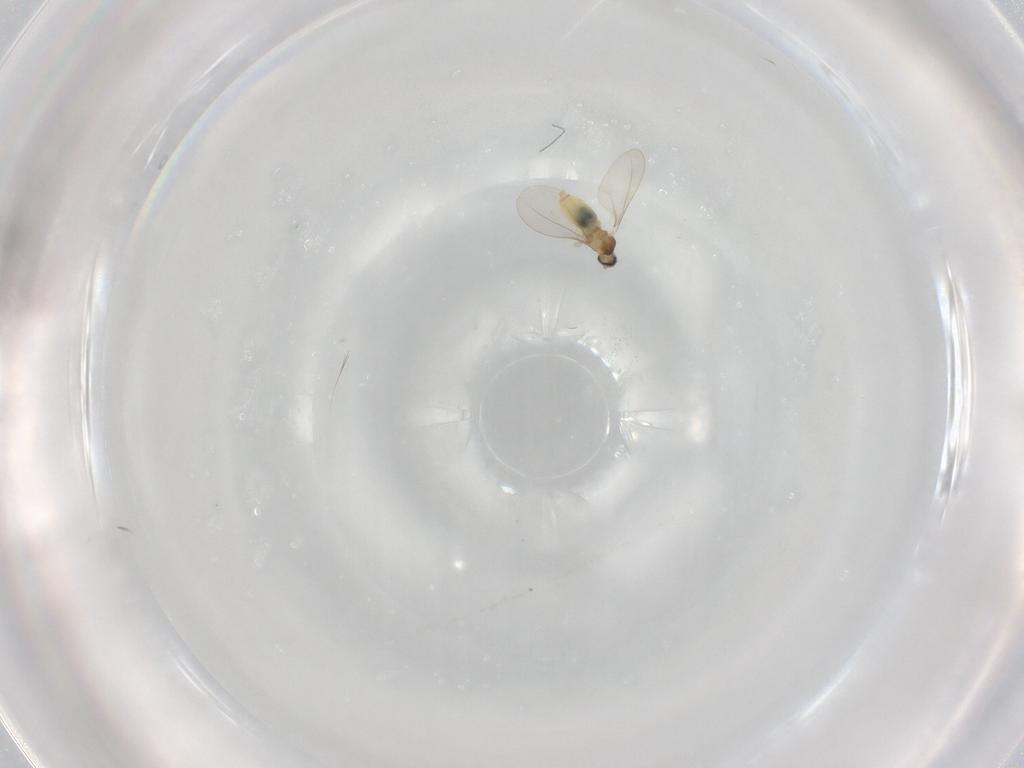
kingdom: Animalia
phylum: Arthropoda
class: Insecta
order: Diptera
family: Cecidomyiidae
